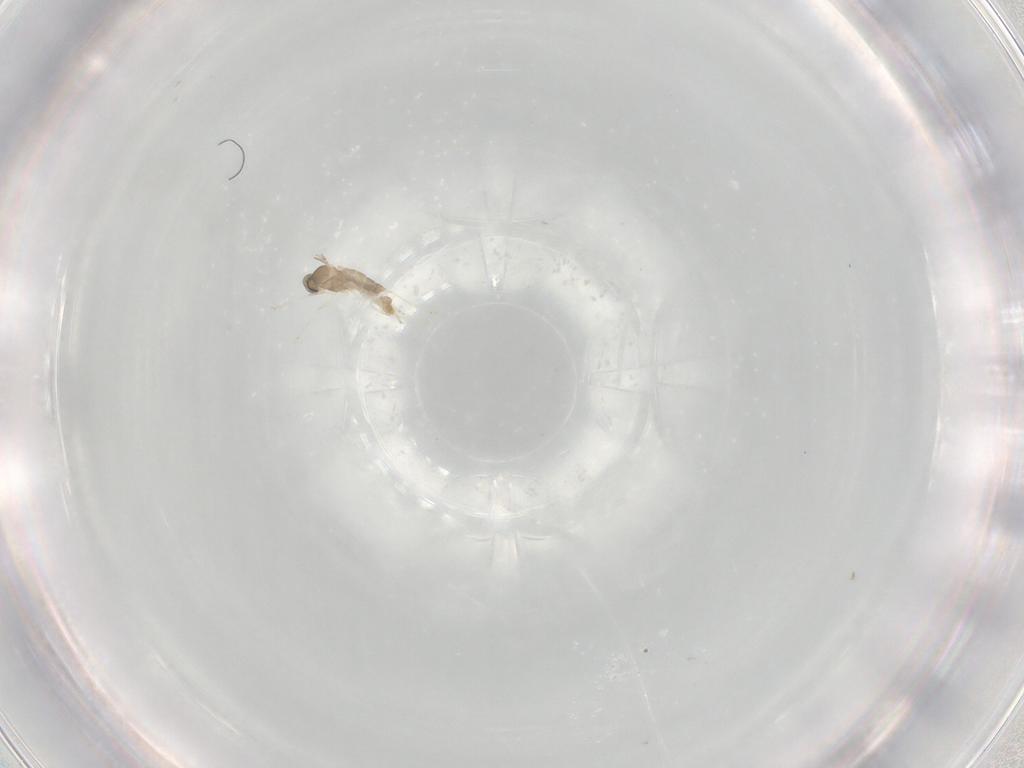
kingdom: Animalia
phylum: Arthropoda
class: Insecta
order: Diptera
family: Cecidomyiidae
